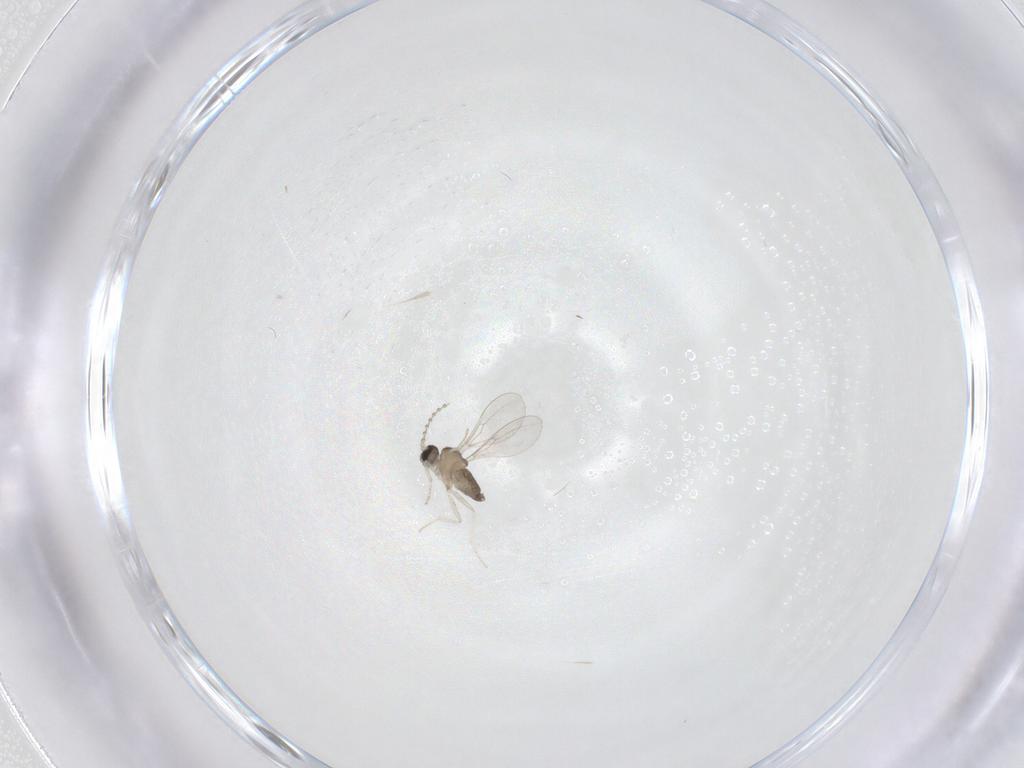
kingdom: Animalia
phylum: Arthropoda
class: Insecta
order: Diptera
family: Cecidomyiidae
